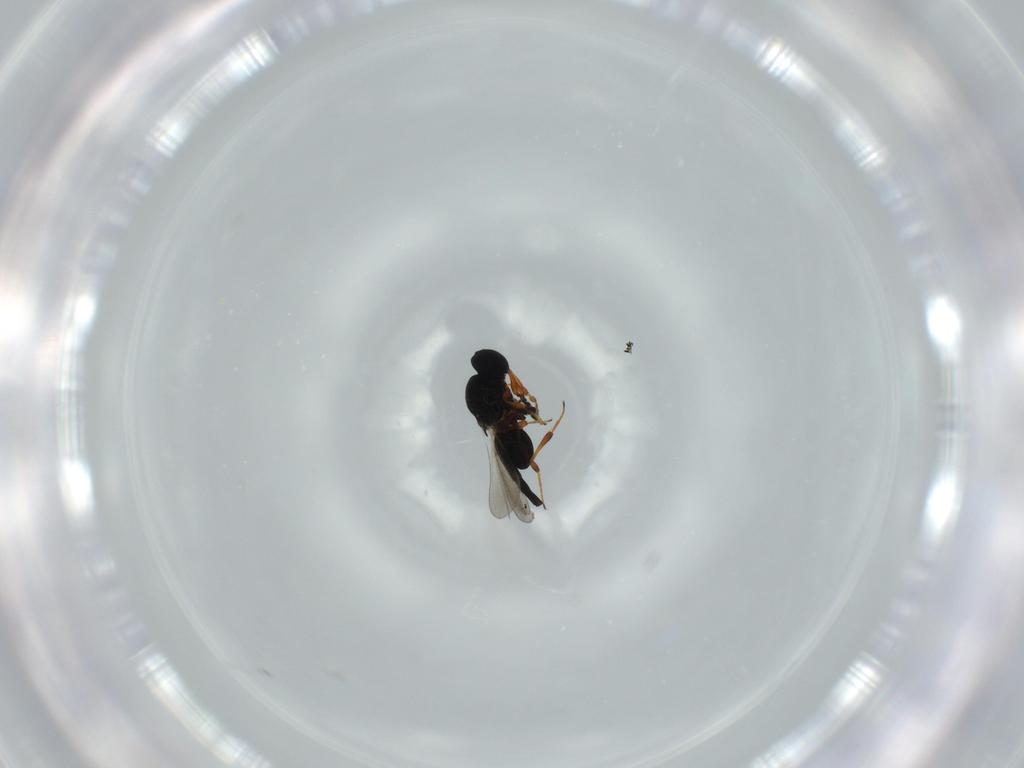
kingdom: Animalia
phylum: Arthropoda
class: Insecta
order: Hymenoptera
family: Platygastridae
